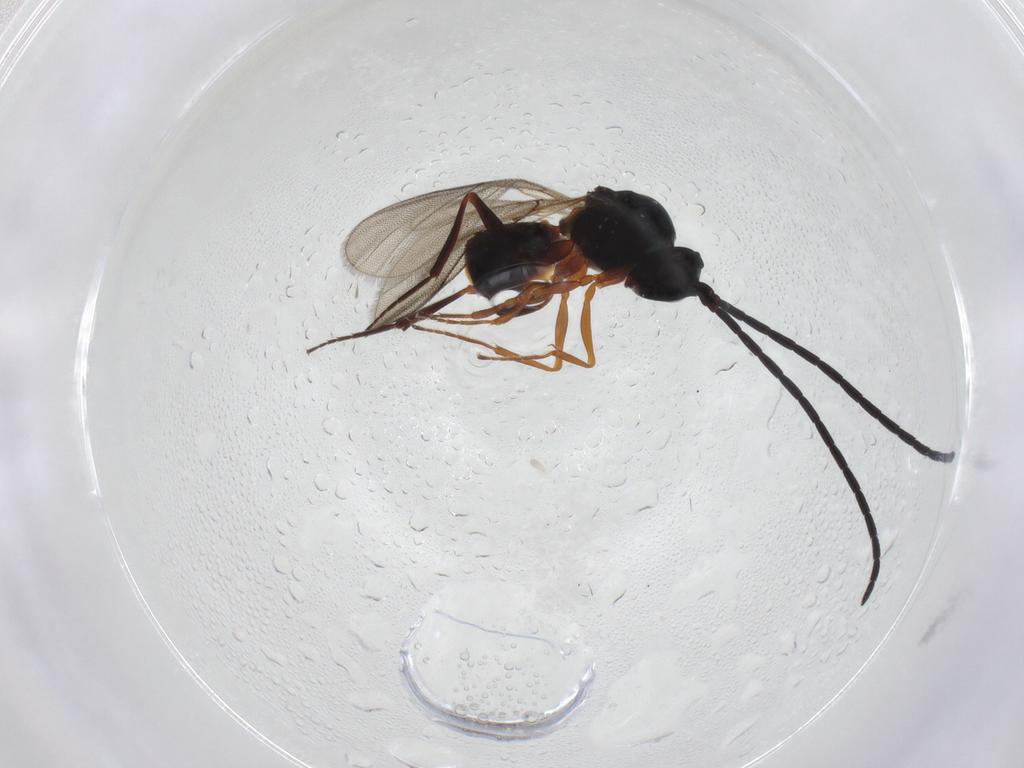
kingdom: Animalia
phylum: Arthropoda
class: Insecta
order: Hymenoptera
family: Figitidae
